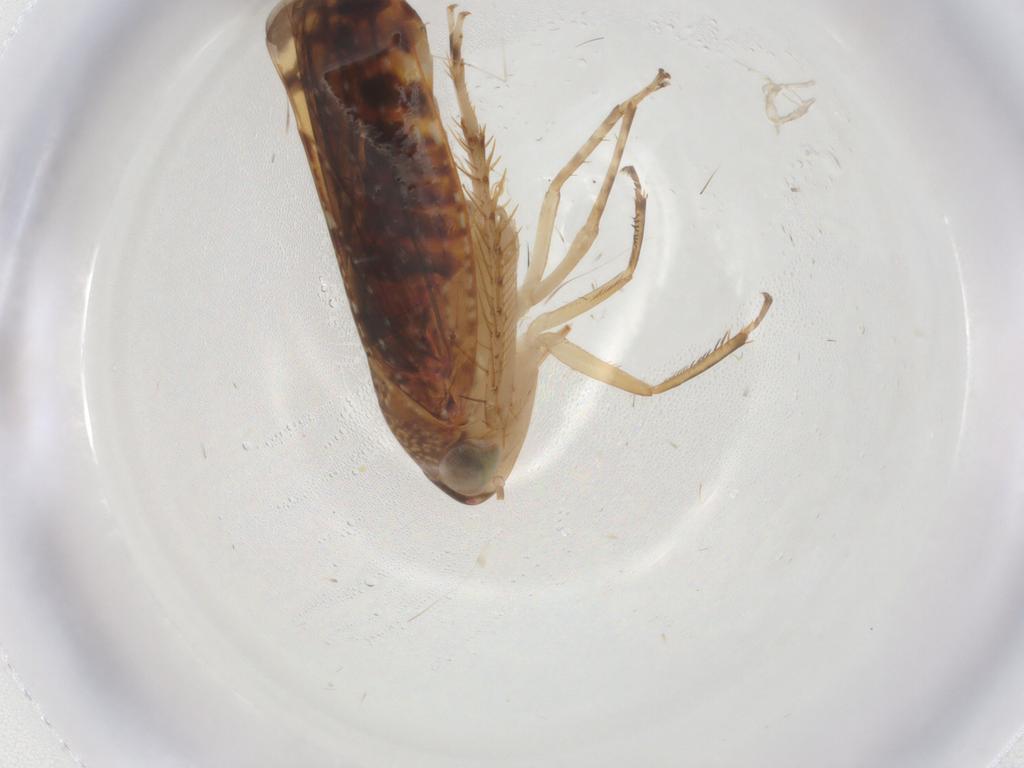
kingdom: Animalia
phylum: Arthropoda
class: Insecta
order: Hemiptera
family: Cicadellidae
